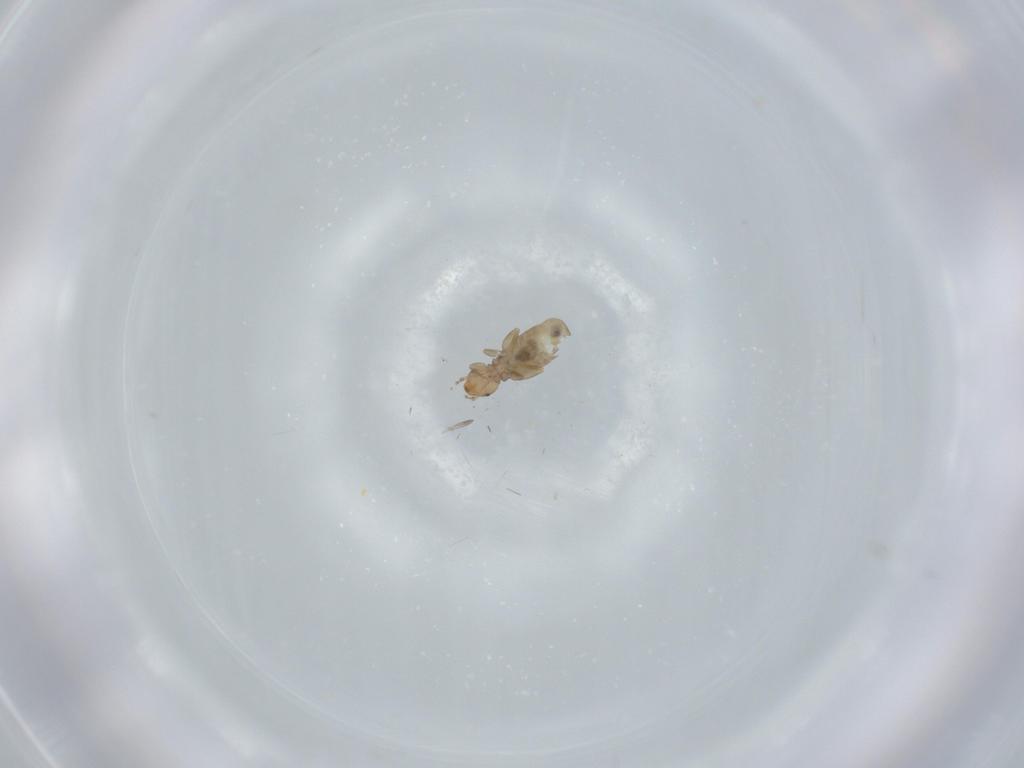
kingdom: Animalia
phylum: Arthropoda
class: Insecta
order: Psocodea
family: Liposcelididae
